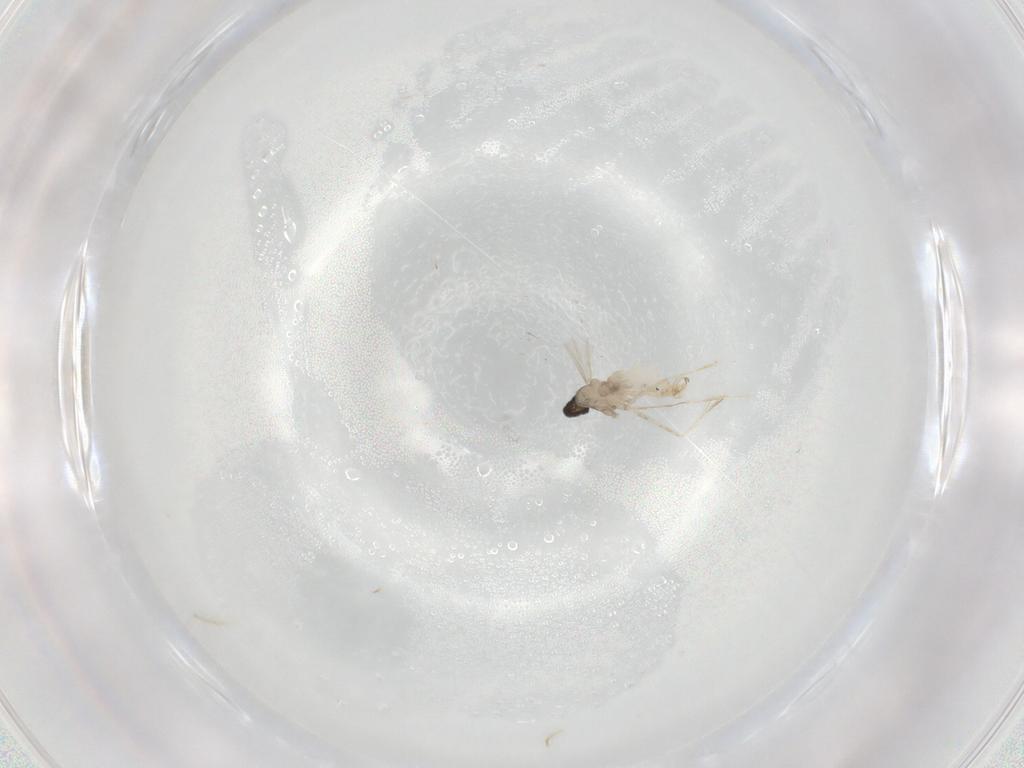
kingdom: Animalia
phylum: Arthropoda
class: Insecta
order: Diptera
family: Cecidomyiidae
